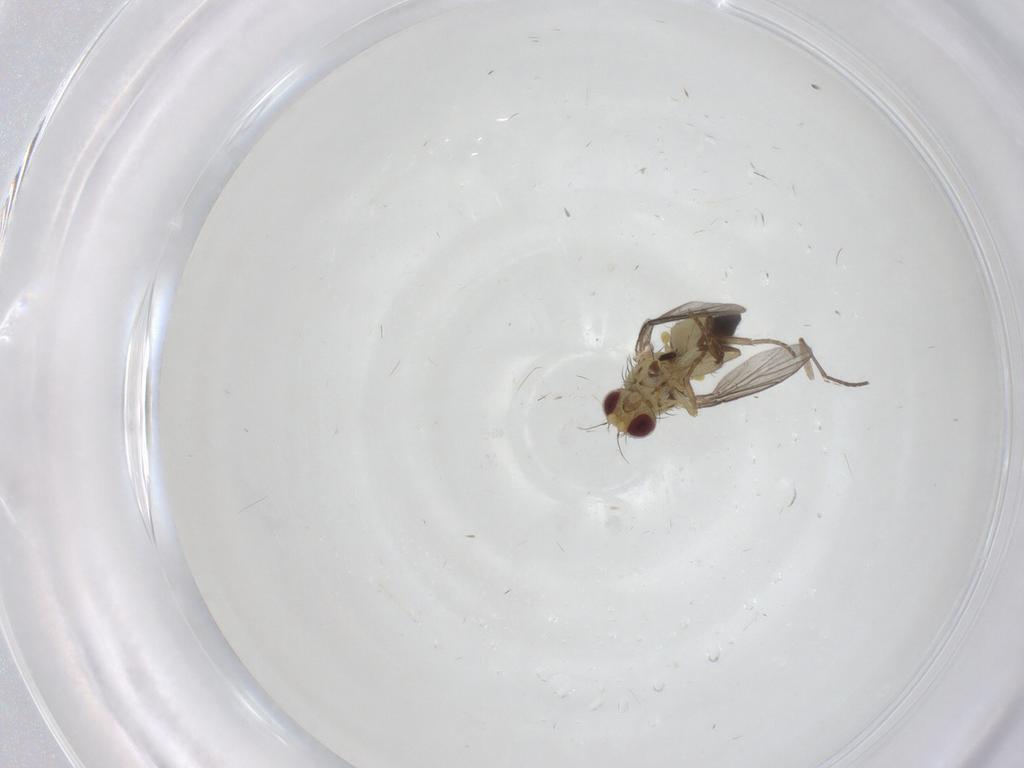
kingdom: Animalia
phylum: Arthropoda
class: Insecta
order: Diptera
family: Agromyzidae
